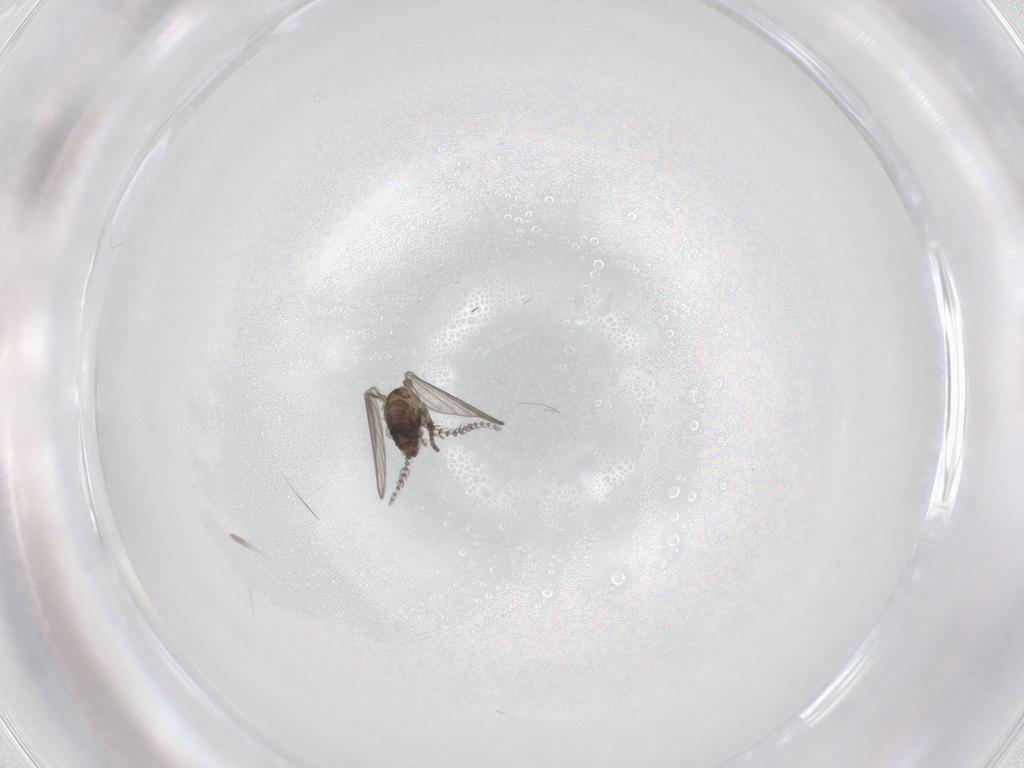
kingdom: Animalia
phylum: Arthropoda
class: Insecta
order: Diptera
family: Psychodidae
